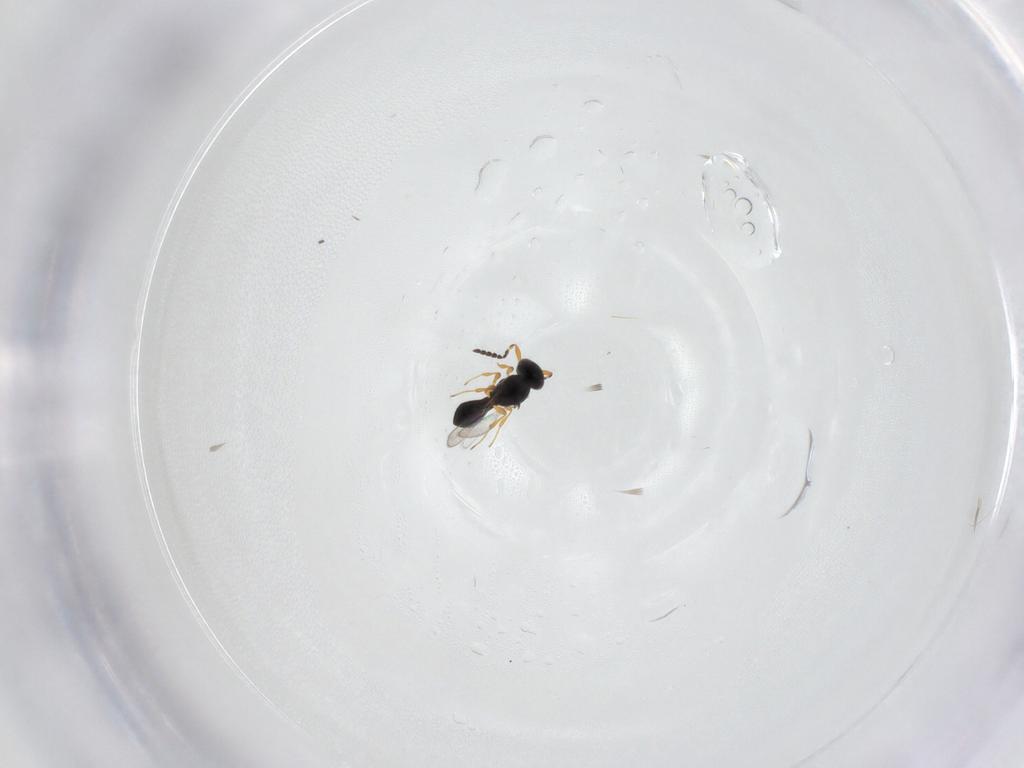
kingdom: Animalia
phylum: Arthropoda
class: Insecta
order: Hymenoptera
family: Platygastridae
